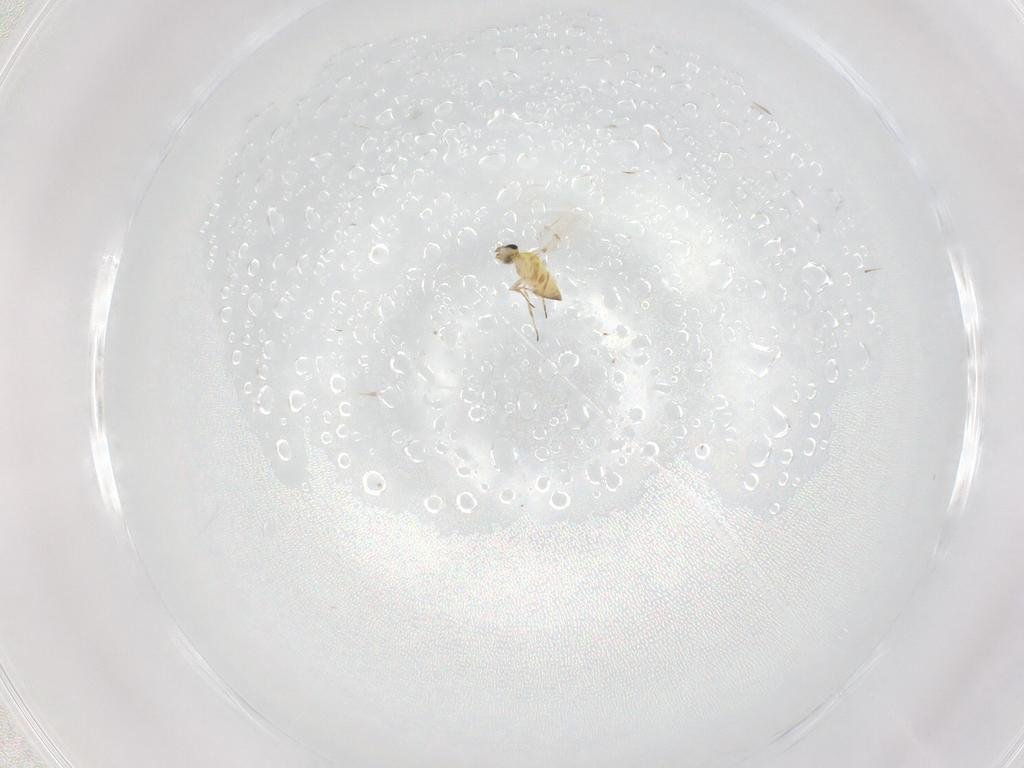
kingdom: Animalia
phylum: Arthropoda
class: Insecta
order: Hymenoptera
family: Trichogrammatidae
